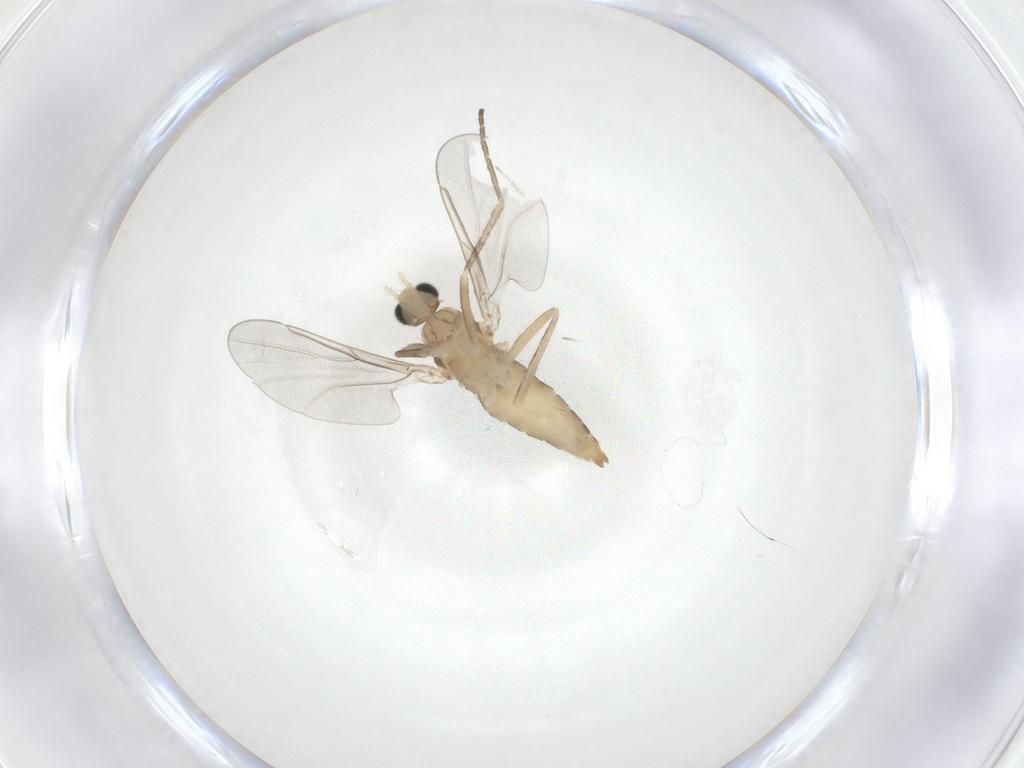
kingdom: Animalia
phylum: Arthropoda
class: Insecta
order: Diptera
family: Cecidomyiidae
